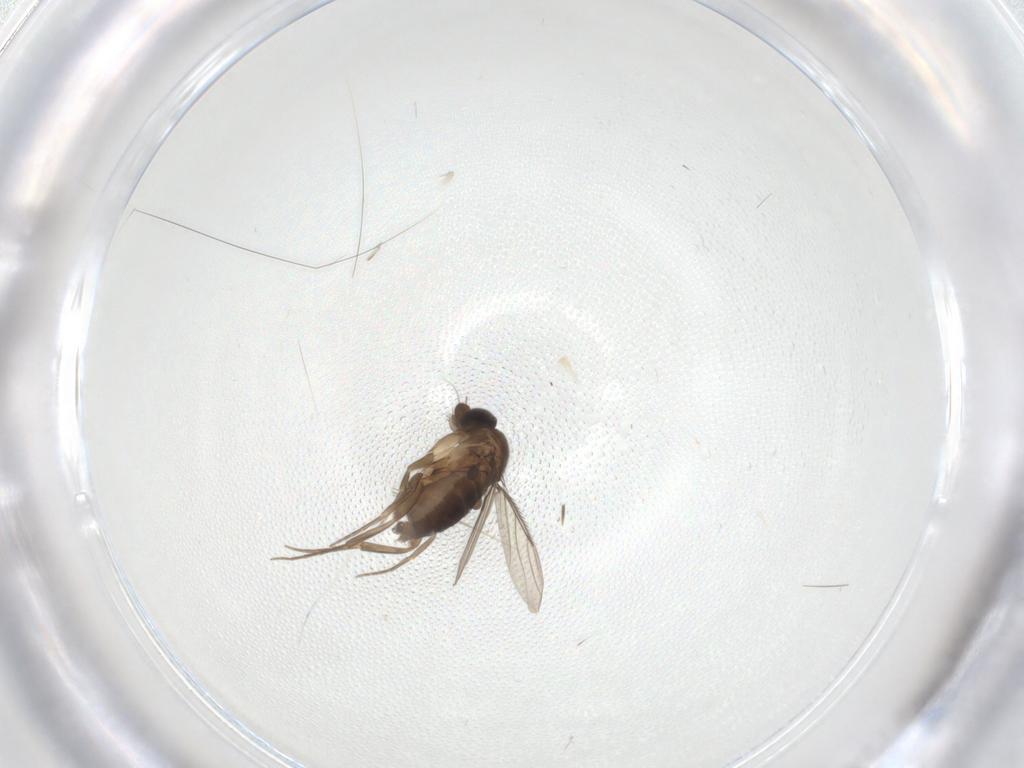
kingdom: Animalia
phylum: Arthropoda
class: Insecta
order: Diptera
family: Phoridae
